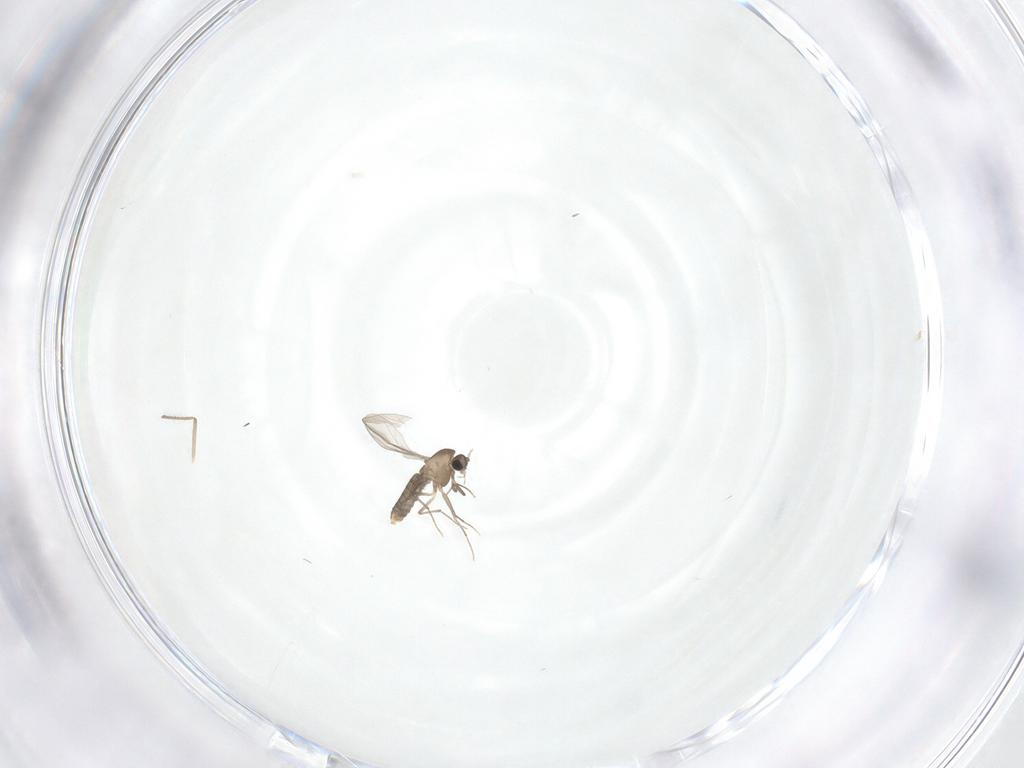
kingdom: Animalia
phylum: Arthropoda
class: Insecta
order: Diptera
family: Chironomidae
